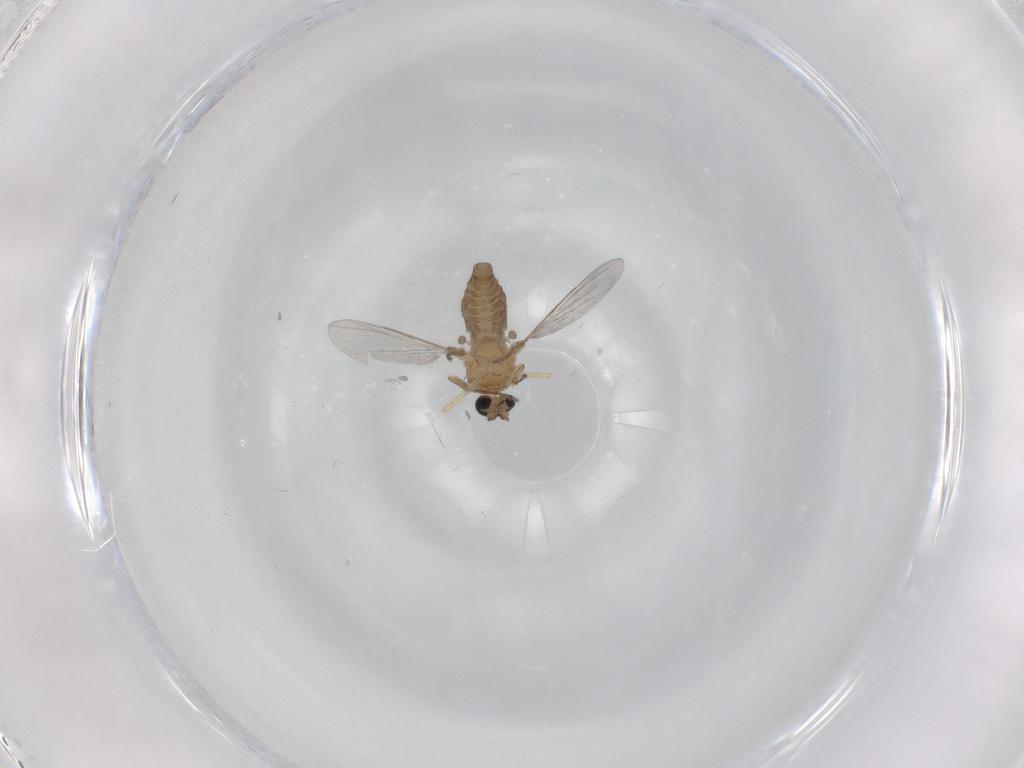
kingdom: Animalia
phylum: Arthropoda
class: Insecta
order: Diptera
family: Ceratopogonidae
